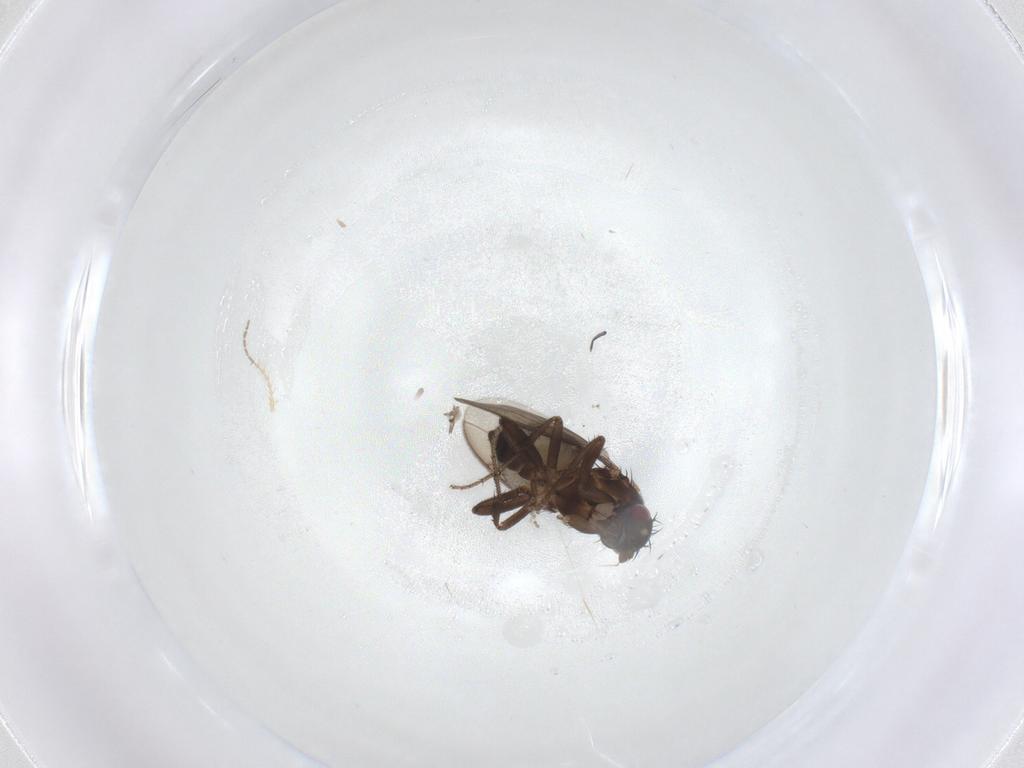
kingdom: Animalia
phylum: Arthropoda
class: Insecta
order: Diptera
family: Sphaeroceridae
